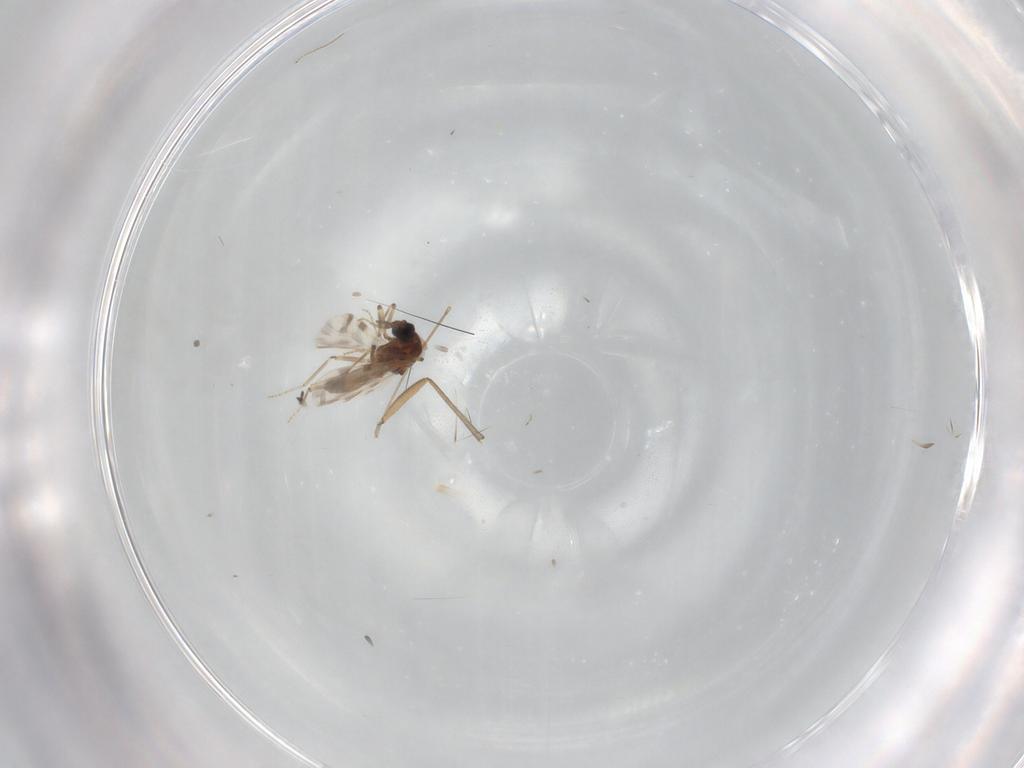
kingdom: Animalia
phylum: Arthropoda
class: Insecta
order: Diptera
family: Sciaridae
